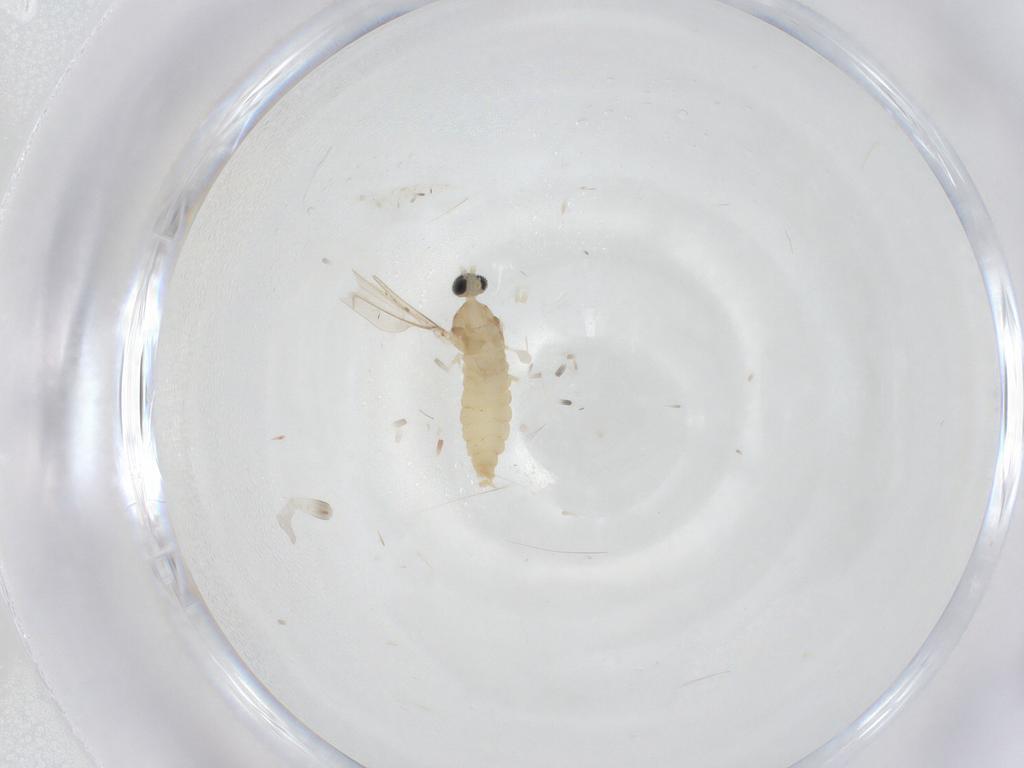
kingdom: Animalia
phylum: Arthropoda
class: Insecta
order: Diptera
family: Cecidomyiidae
